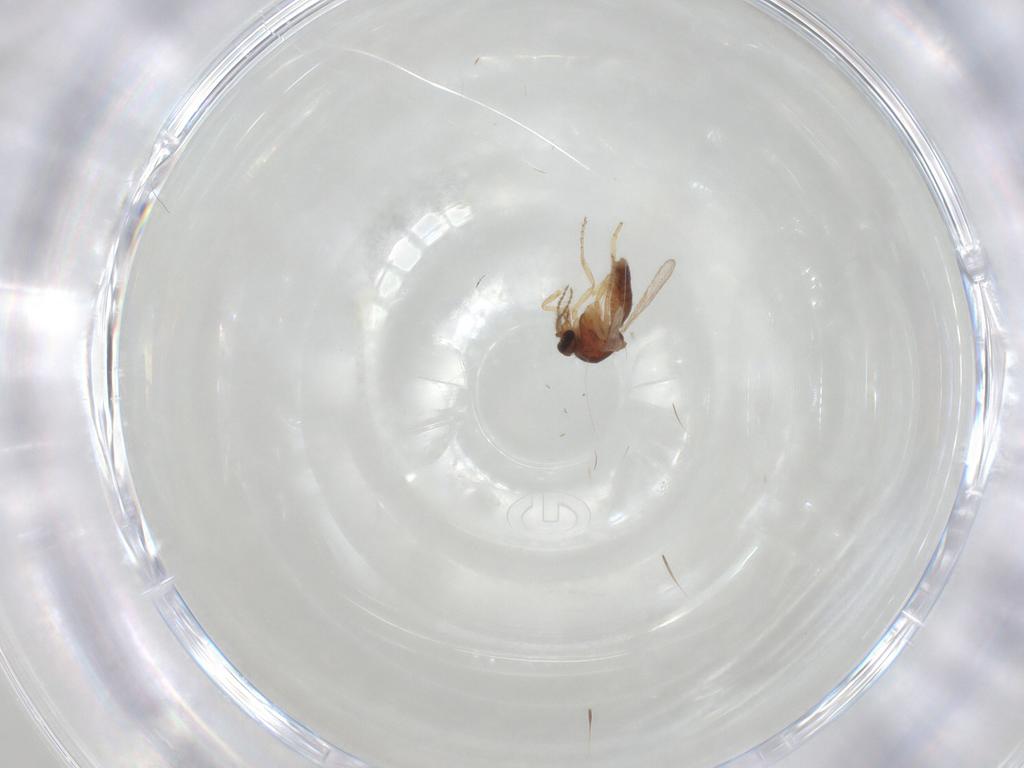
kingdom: Animalia
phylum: Arthropoda
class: Insecta
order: Diptera
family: Ceratopogonidae
